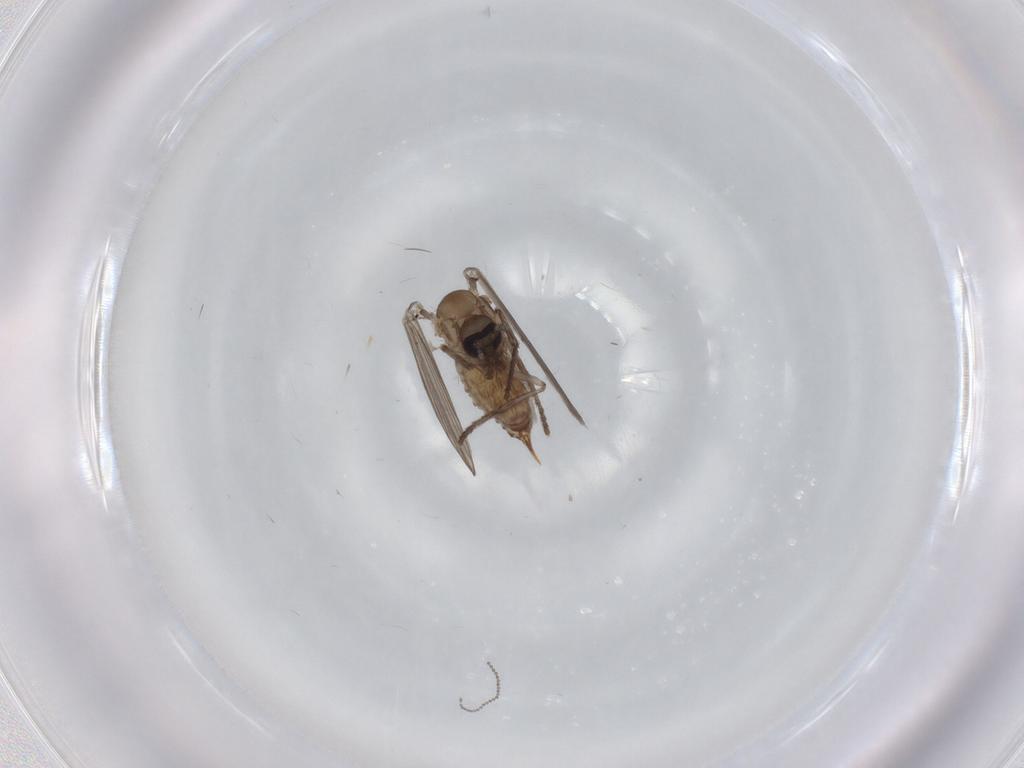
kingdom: Animalia
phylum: Arthropoda
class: Insecta
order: Diptera
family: Psychodidae
